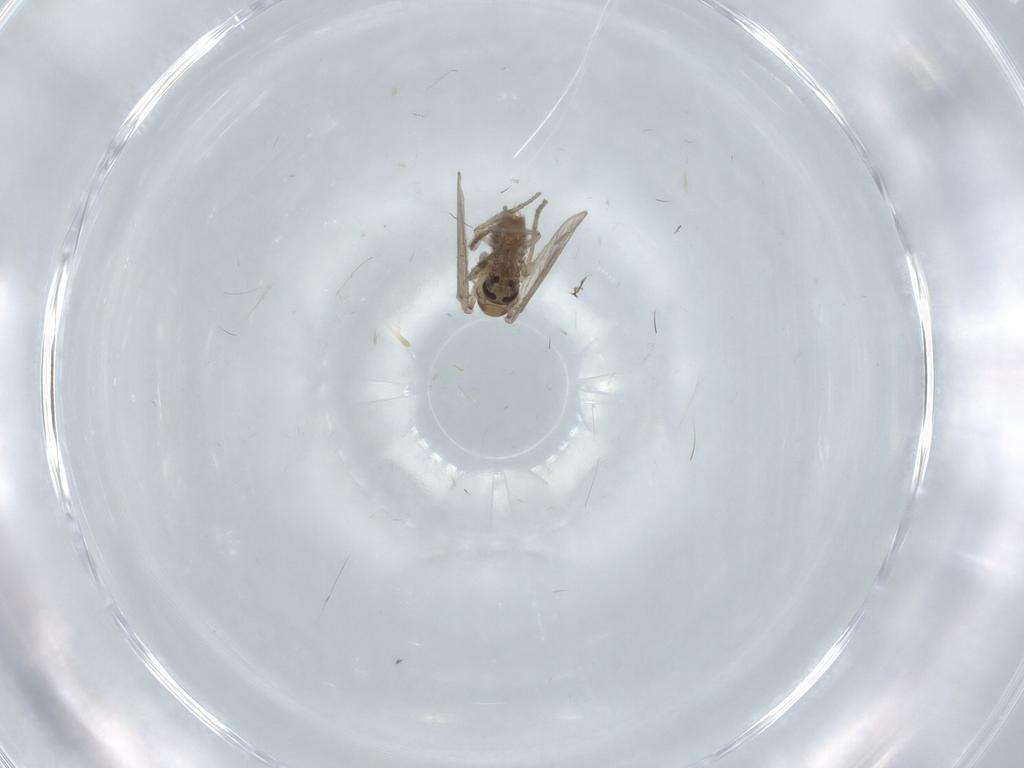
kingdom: Animalia
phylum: Arthropoda
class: Insecta
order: Diptera
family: Psychodidae
